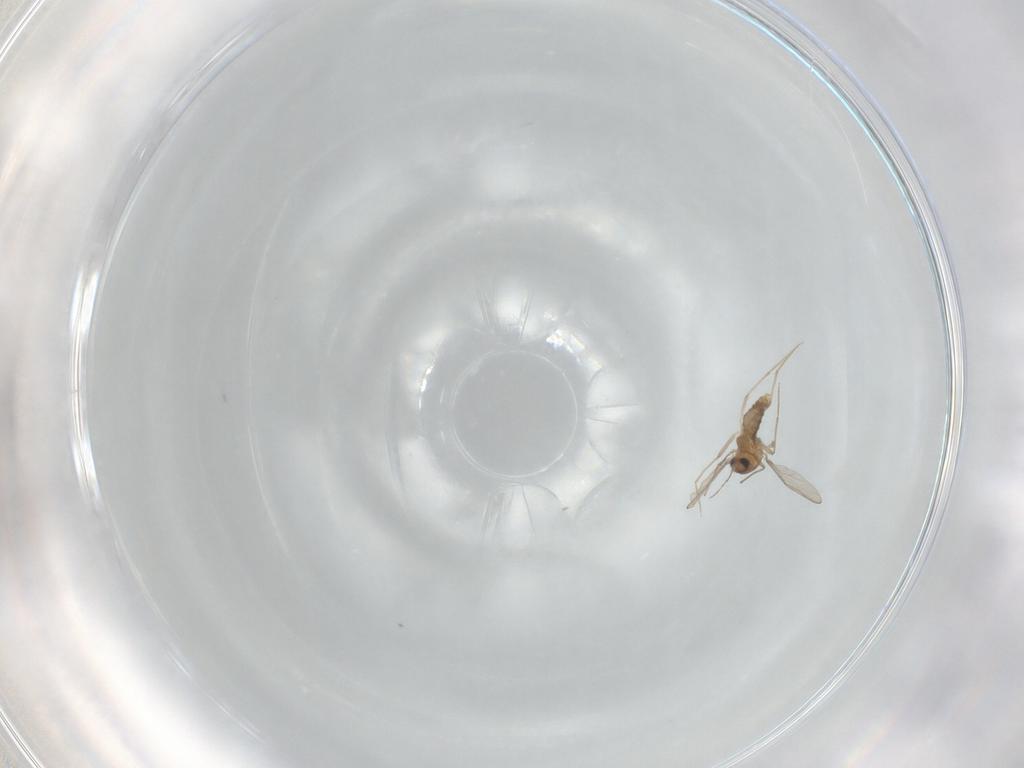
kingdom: Animalia
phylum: Arthropoda
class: Insecta
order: Diptera
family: Chironomidae
